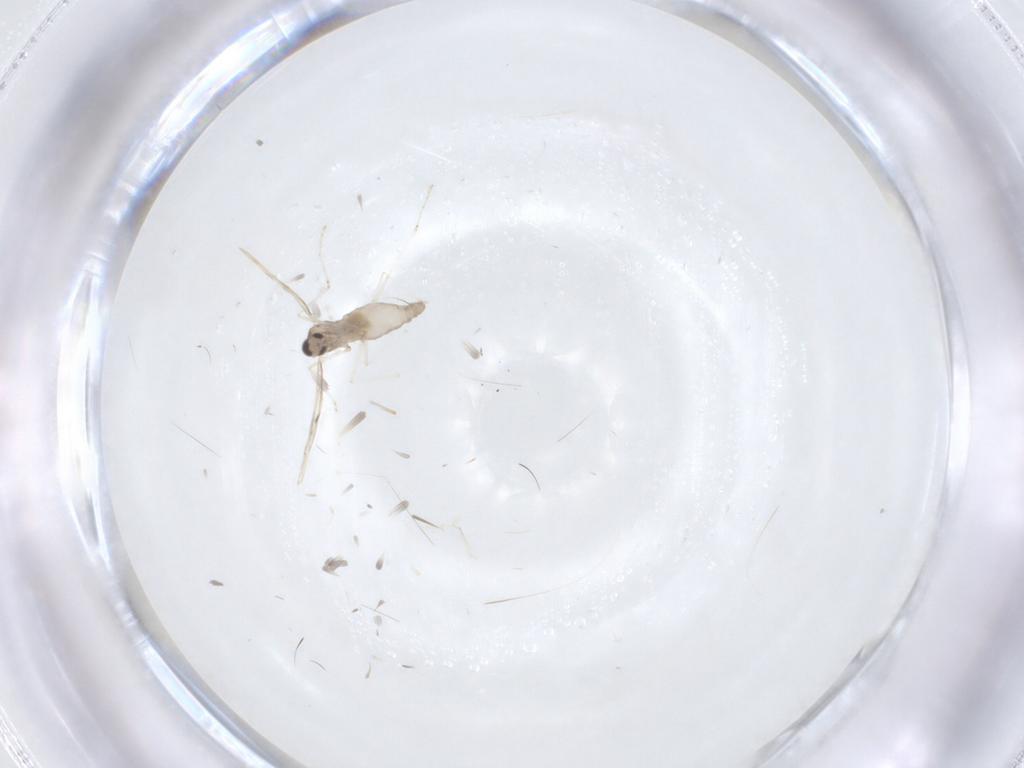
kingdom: Animalia
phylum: Arthropoda
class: Insecta
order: Diptera
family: Cecidomyiidae
